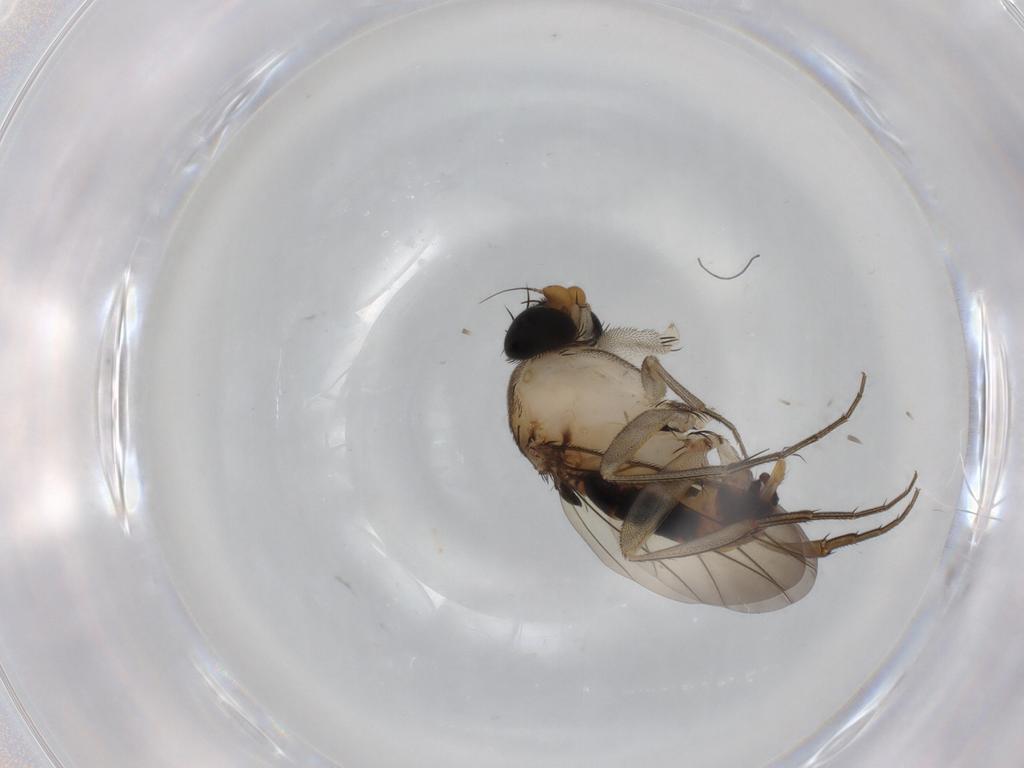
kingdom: Animalia
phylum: Arthropoda
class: Insecta
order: Diptera
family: Phoridae
